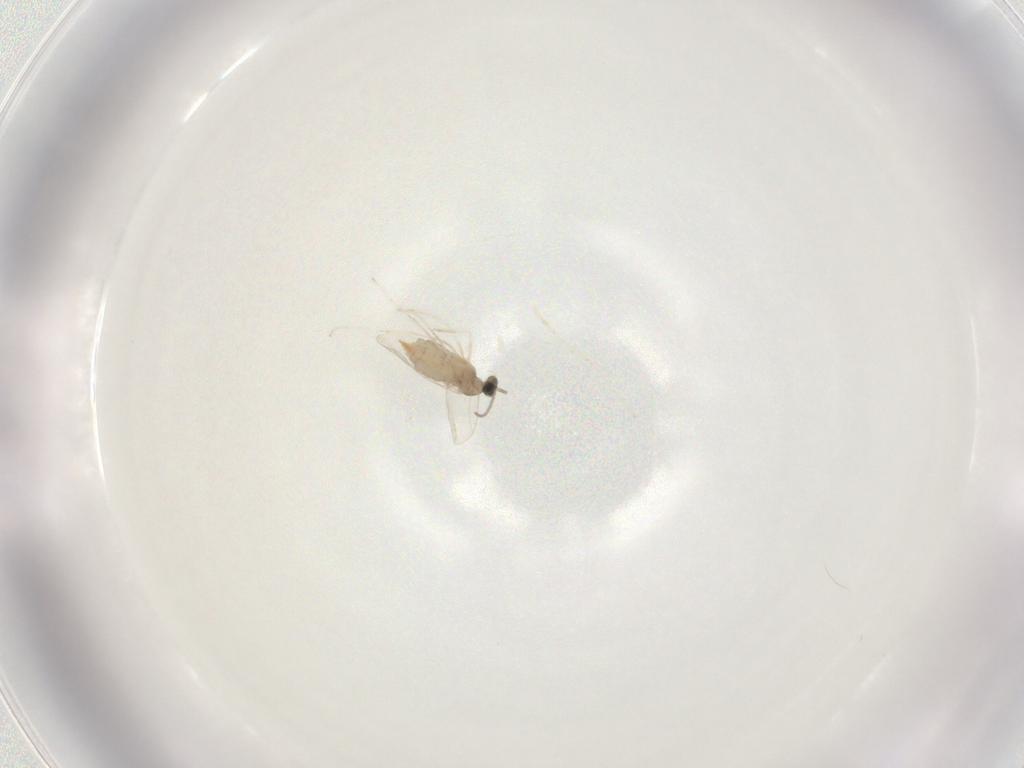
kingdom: Animalia
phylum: Arthropoda
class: Insecta
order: Diptera
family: Cecidomyiidae
